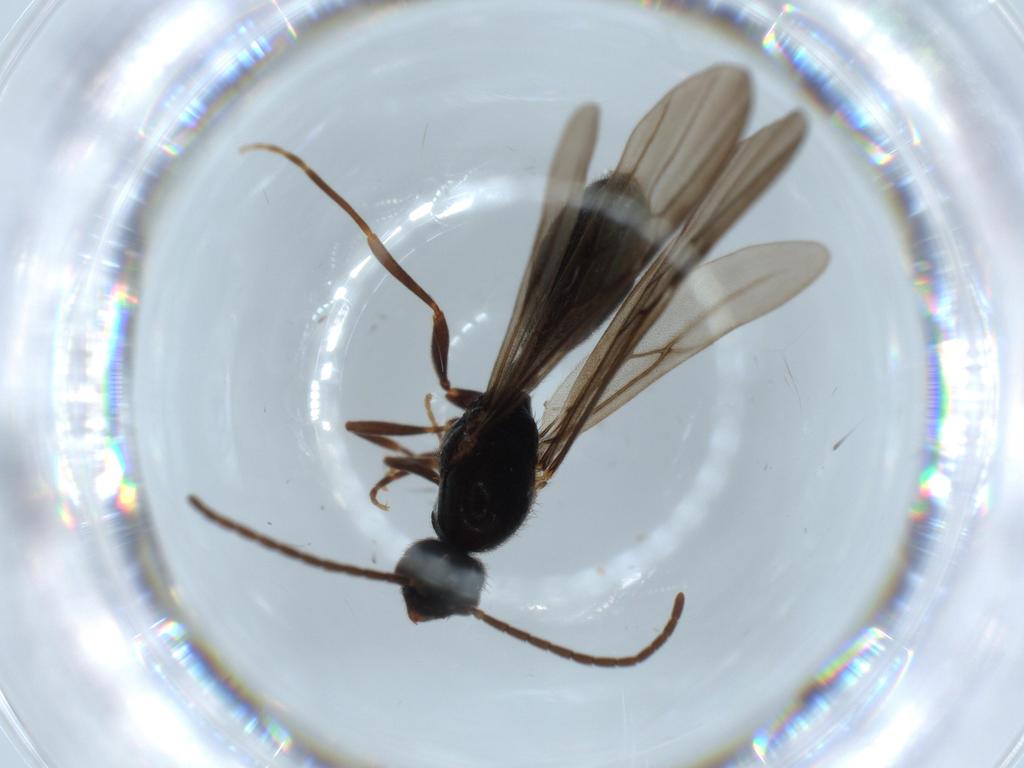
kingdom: Animalia
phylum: Arthropoda
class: Insecta
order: Hymenoptera
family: Formicidae
